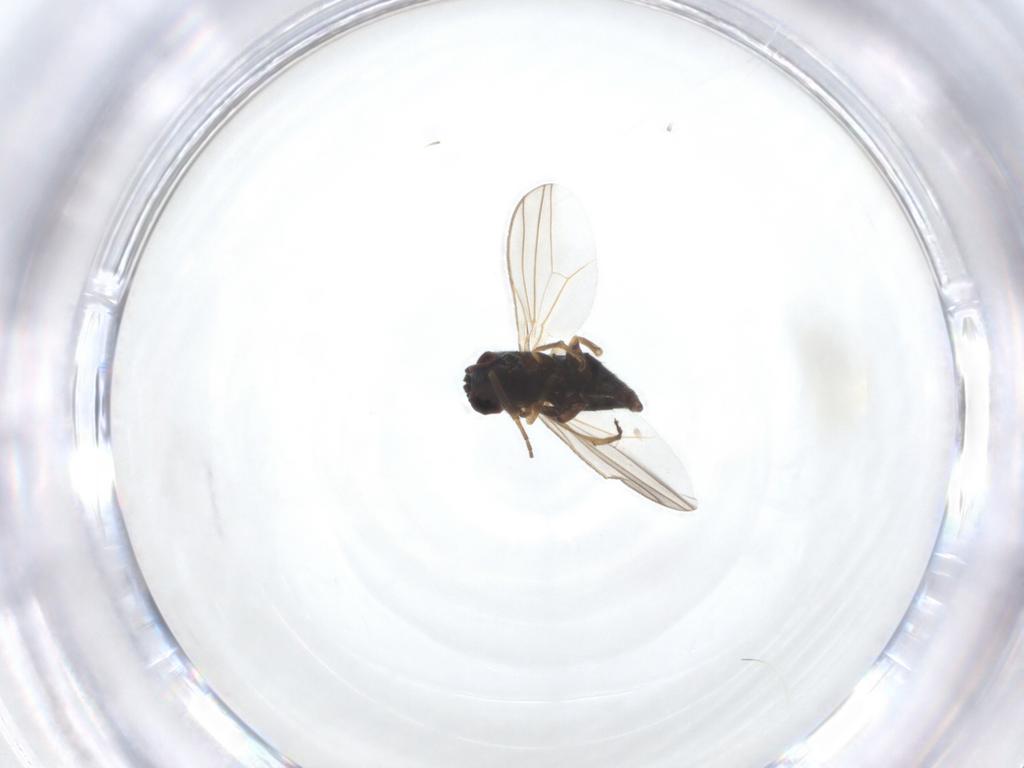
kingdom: Animalia
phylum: Arthropoda
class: Insecta
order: Diptera
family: Dolichopodidae
